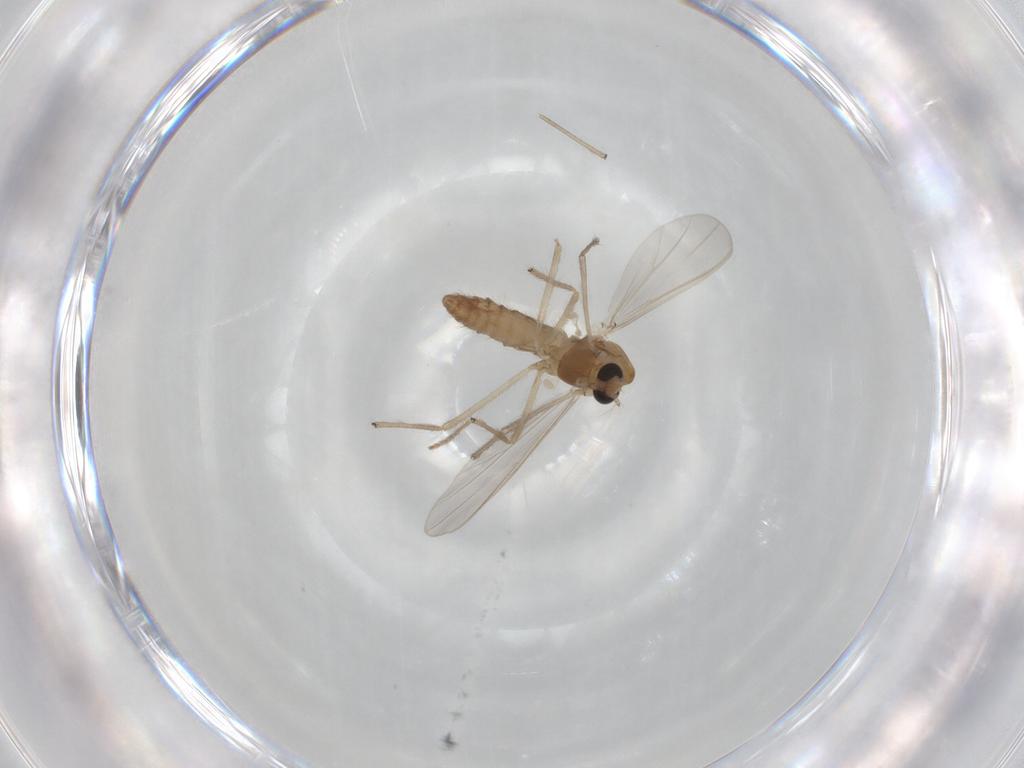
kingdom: Animalia
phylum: Arthropoda
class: Insecta
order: Diptera
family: Chironomidae
